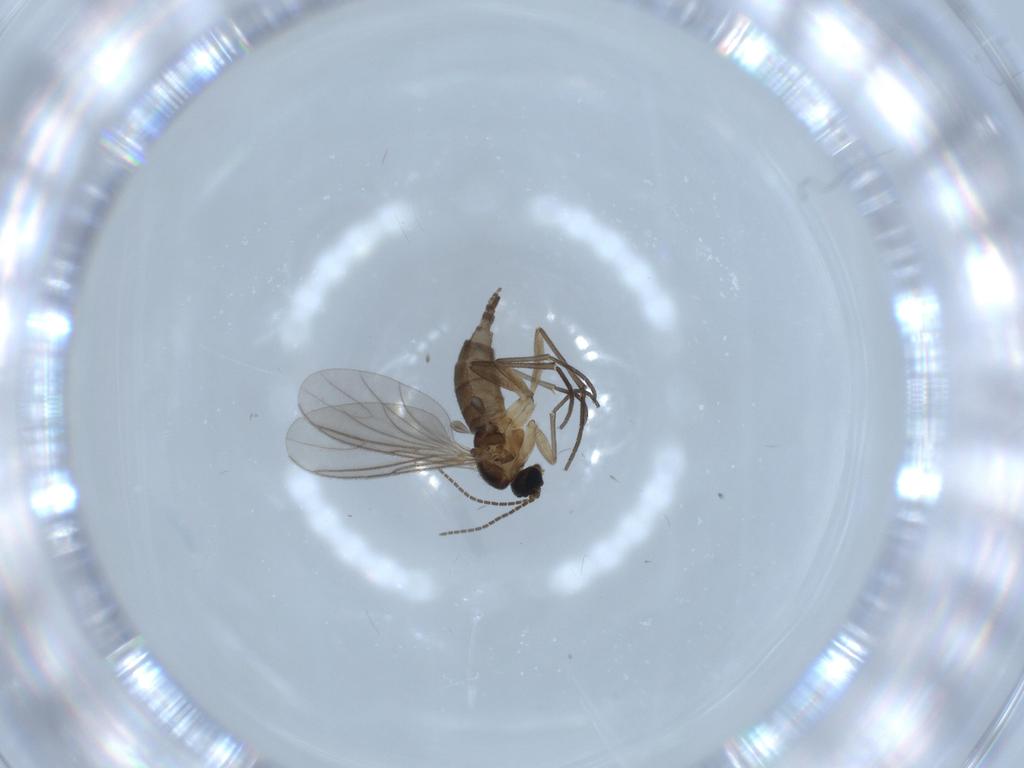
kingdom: Animalia
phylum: Arthropoda
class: Insecta
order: Diptera
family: Sciaridae
